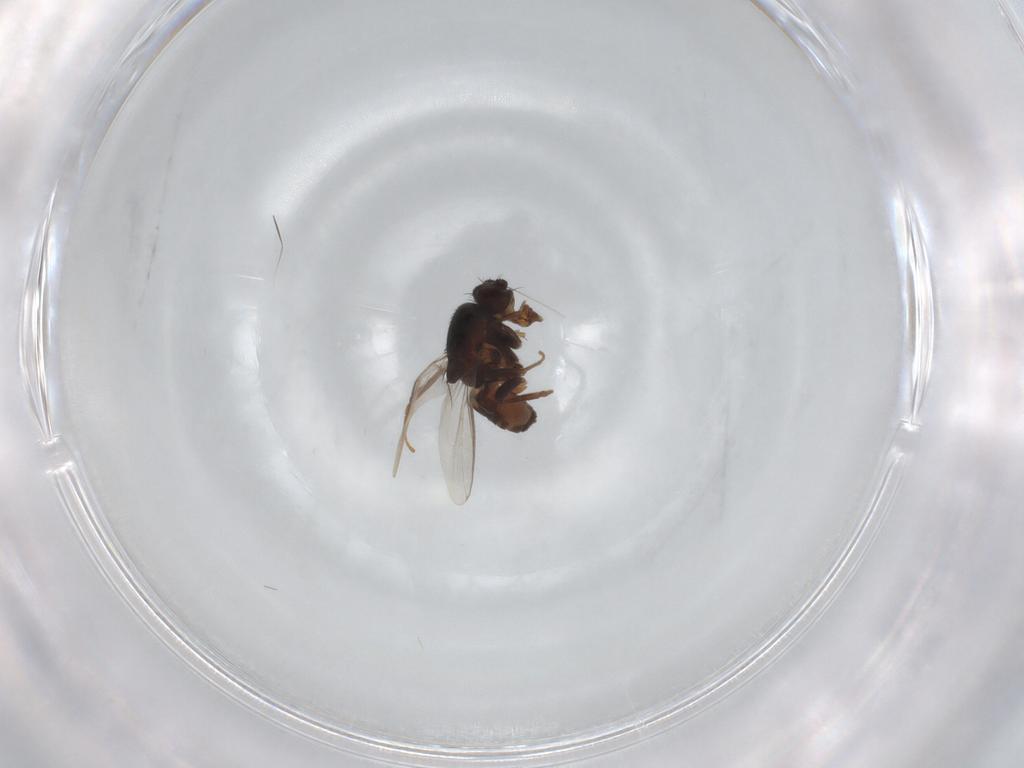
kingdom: Animalia
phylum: Arthropoda
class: Insecta
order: Diptera
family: Sphaeroceridae
